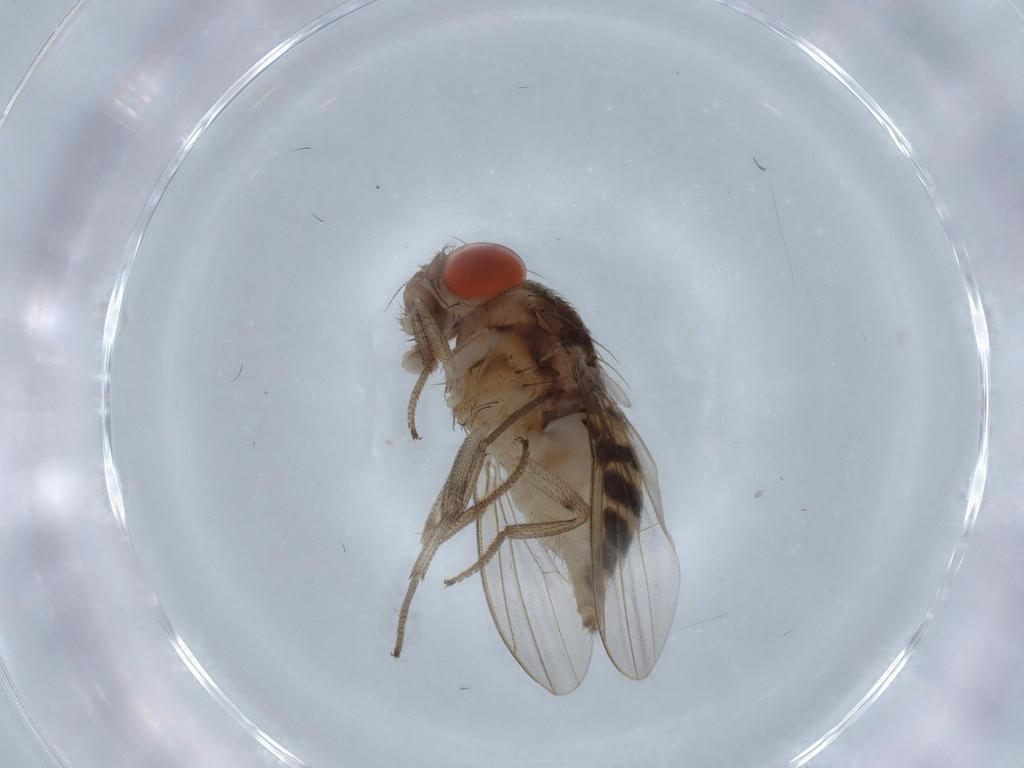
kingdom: Animalia
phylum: Arthropoda
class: Insecta
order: Diptera
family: Drosophilidae
